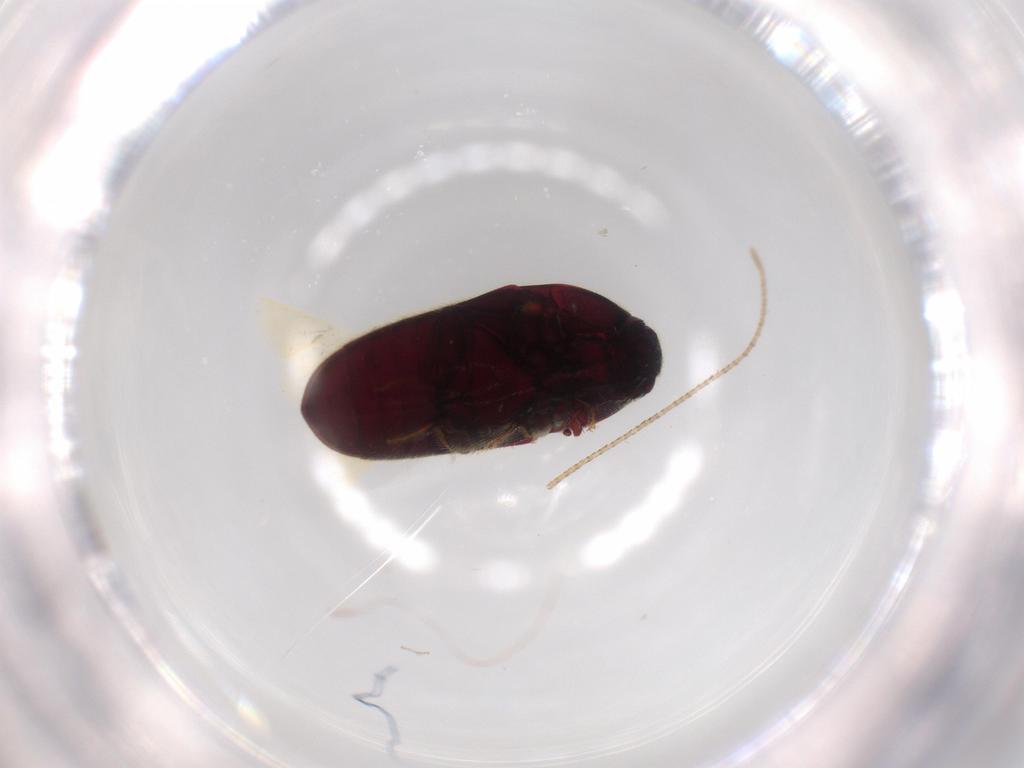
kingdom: Animalia
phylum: Arthropoda
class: Insecta
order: Coleoptera
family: Throscidae
